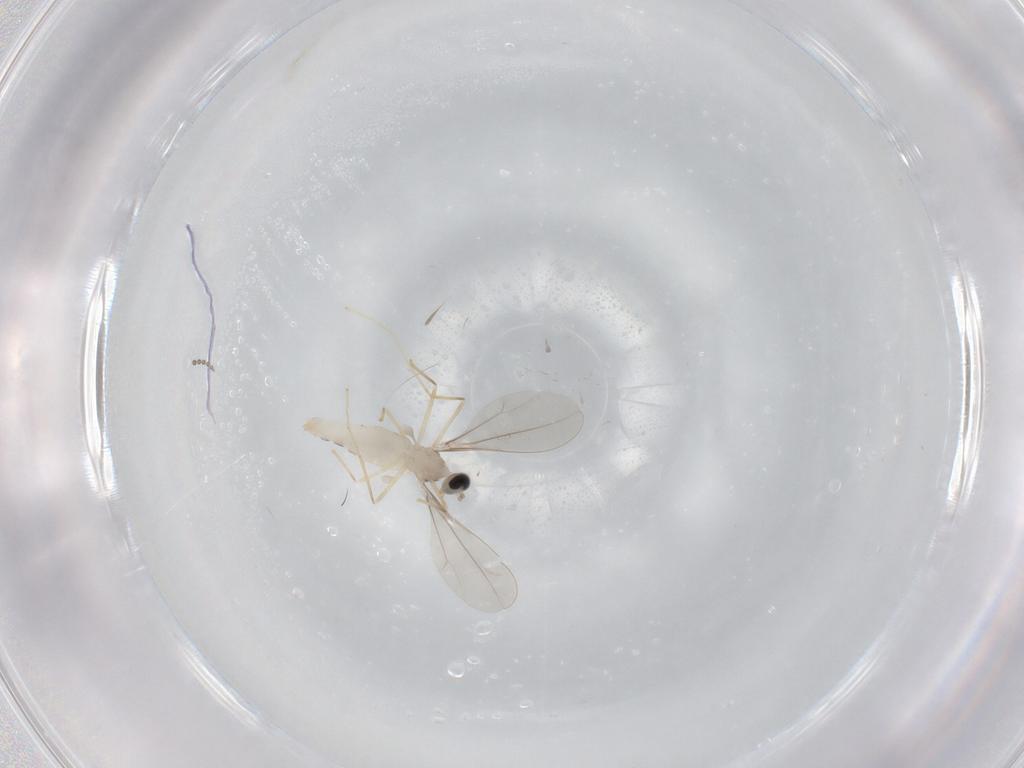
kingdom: Animalia
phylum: Arthropoda
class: Insecta
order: Diptera
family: Cecidomyiidae
